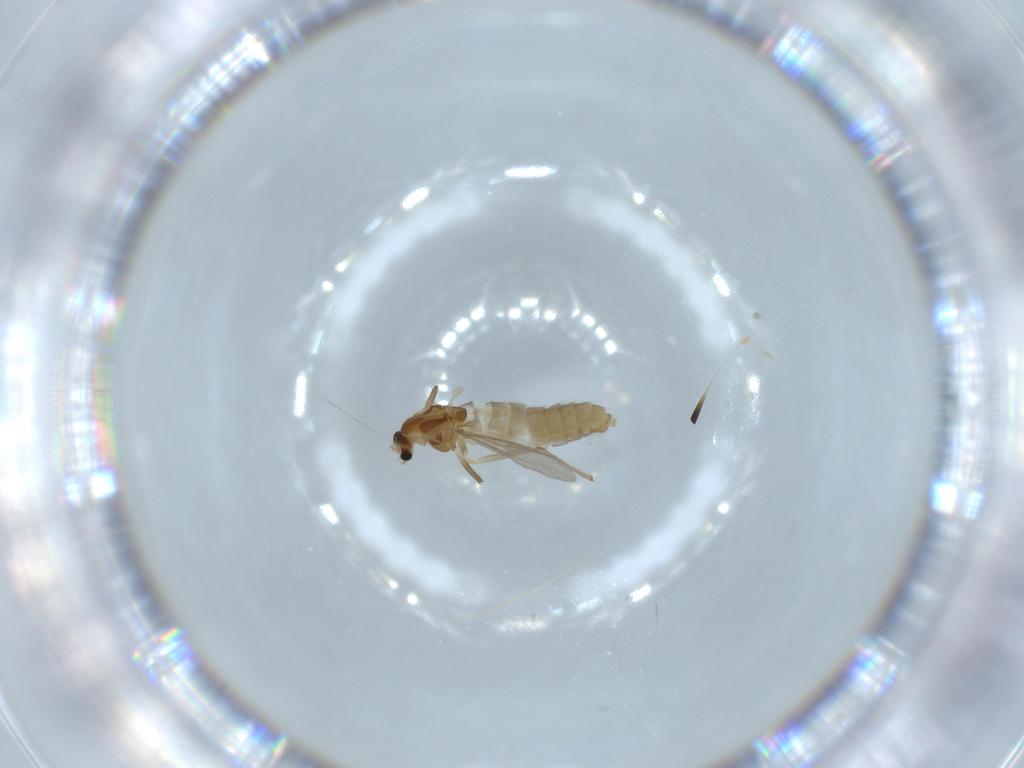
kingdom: Animalia
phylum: Arthropoda
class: Insecta
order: Diptera
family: Chironomidae
